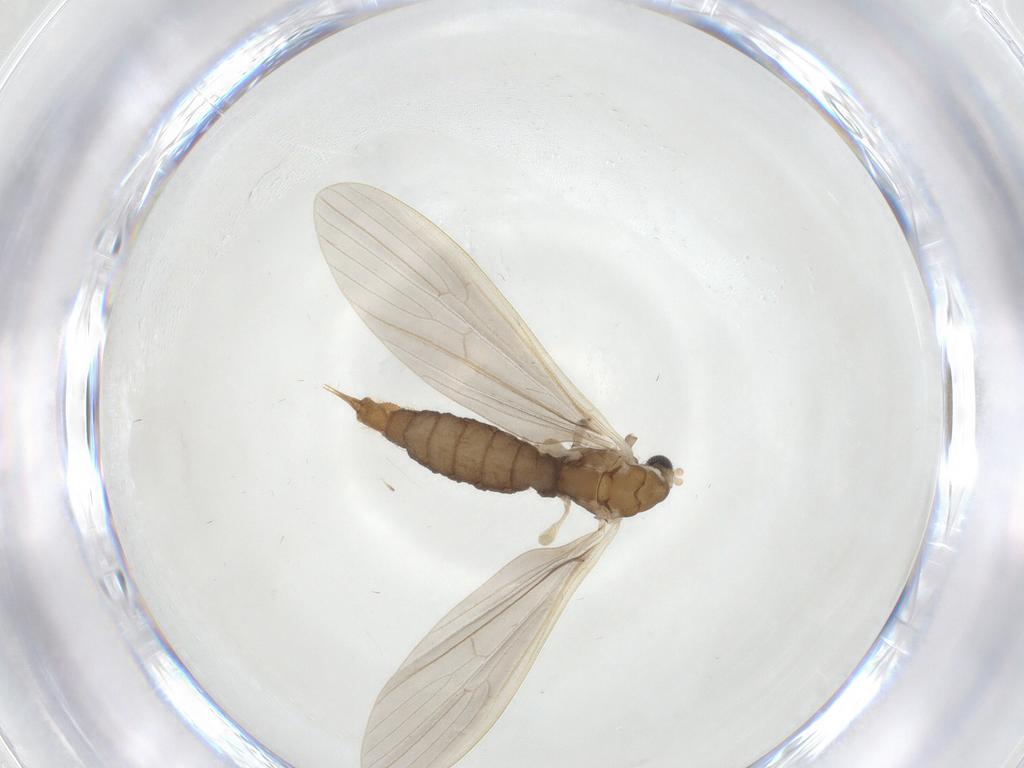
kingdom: Animalia
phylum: Arthropoda
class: Insecta
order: Diptera
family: Limoniidae
